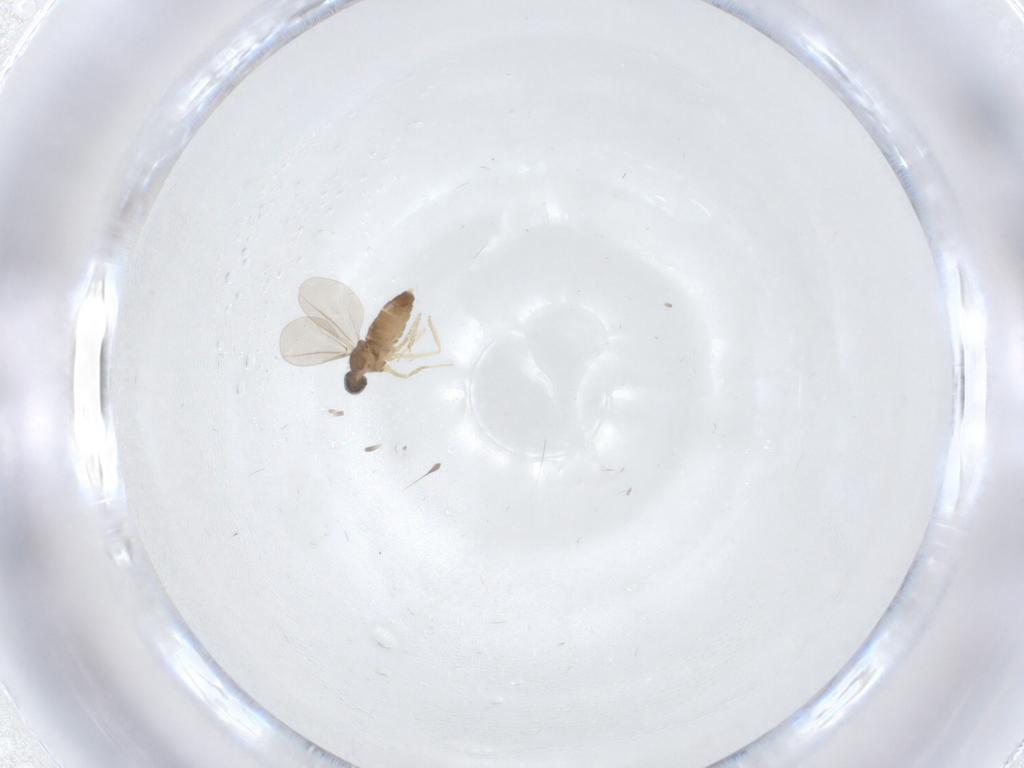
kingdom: Animalia
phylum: Arthropoda
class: Insecta
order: Diptera
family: Cecidomyiidae
